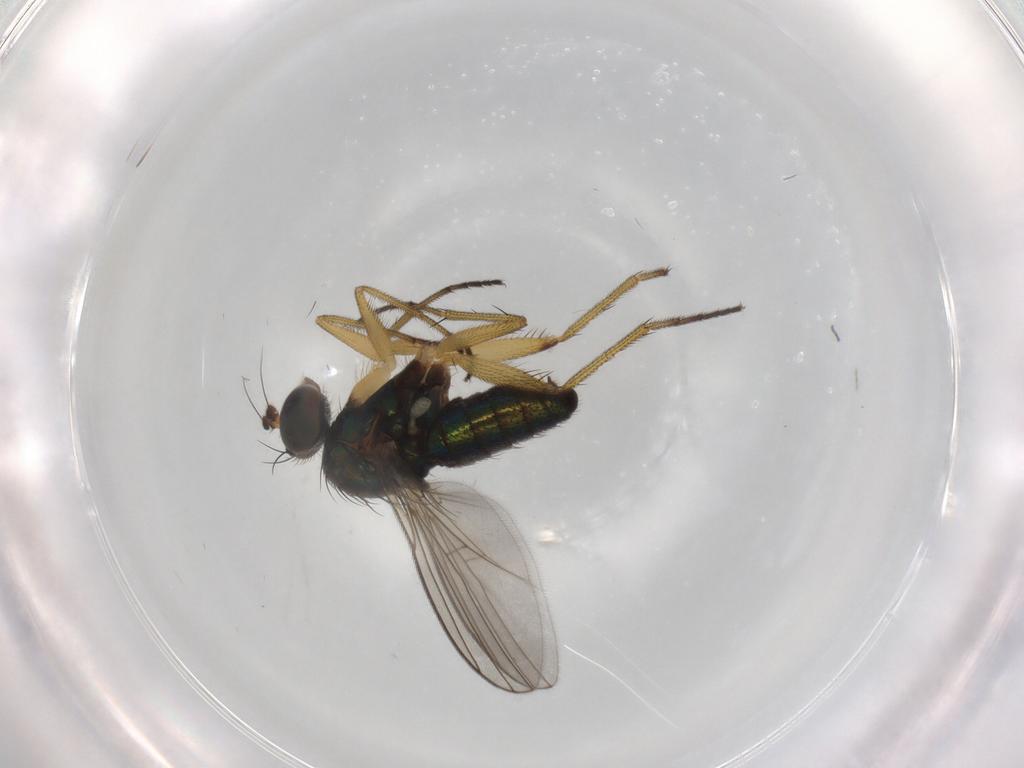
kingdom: Animalia
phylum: Arthropoda
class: Insecta
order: Diptera
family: Dolichopodidae
